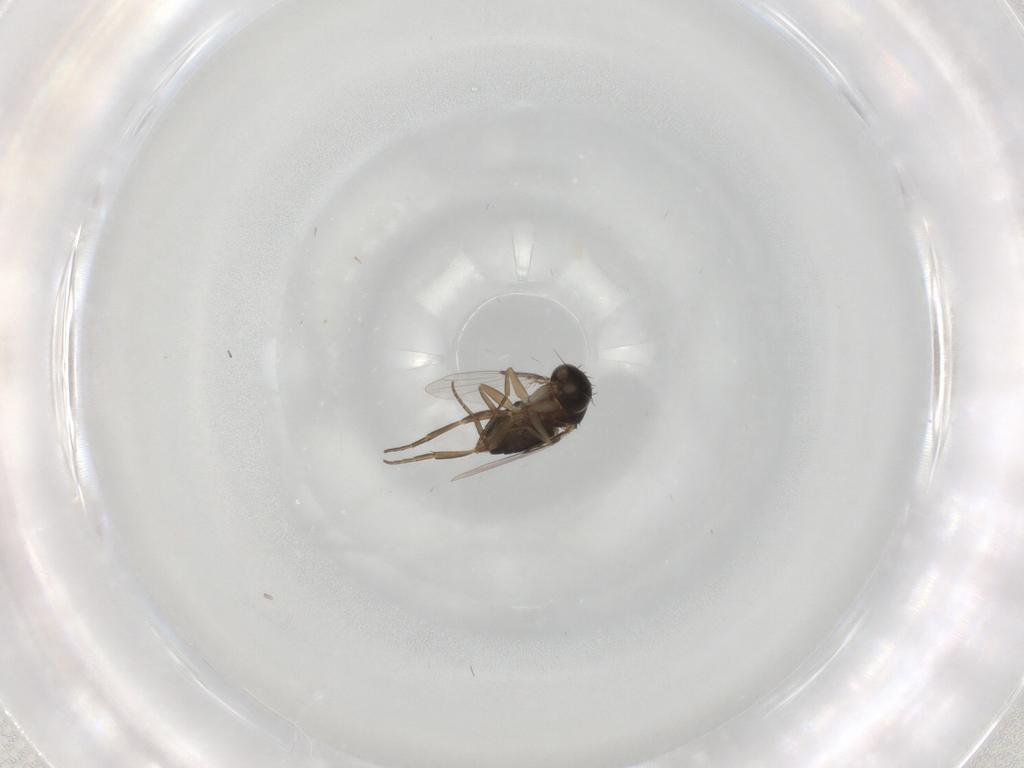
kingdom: Animalia
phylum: Arthropoda
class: Insecta
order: Diptera
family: Phoridae
